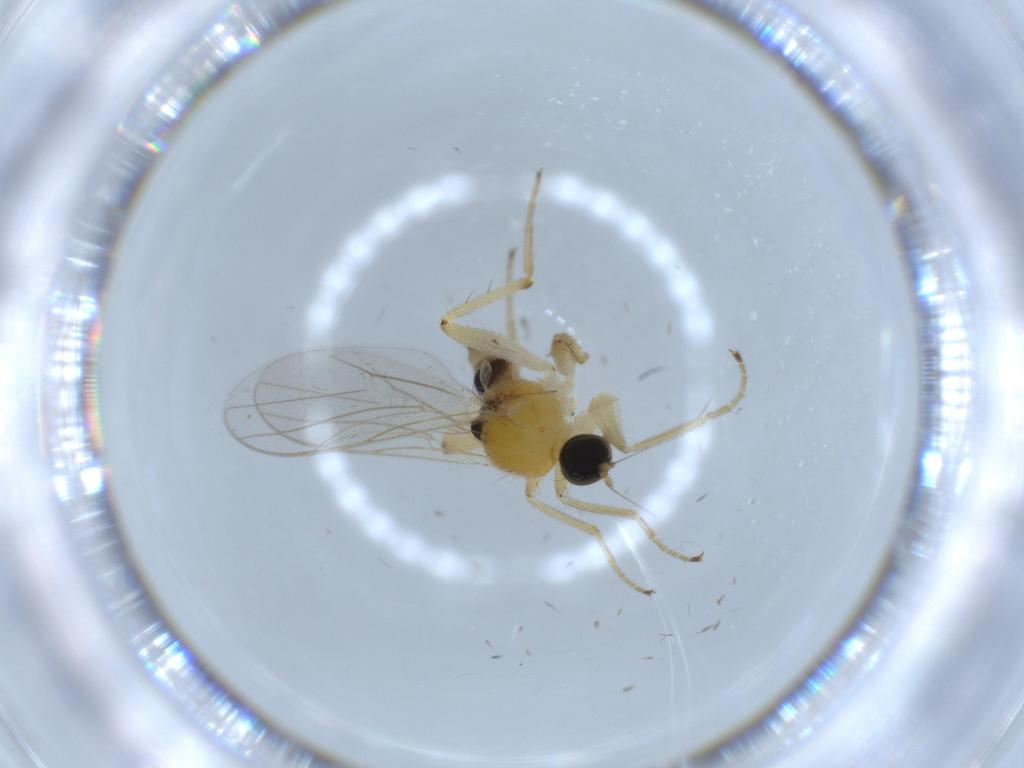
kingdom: Animalia
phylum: Arthropoda
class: Insecta
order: Diptera
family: Hybotidae
